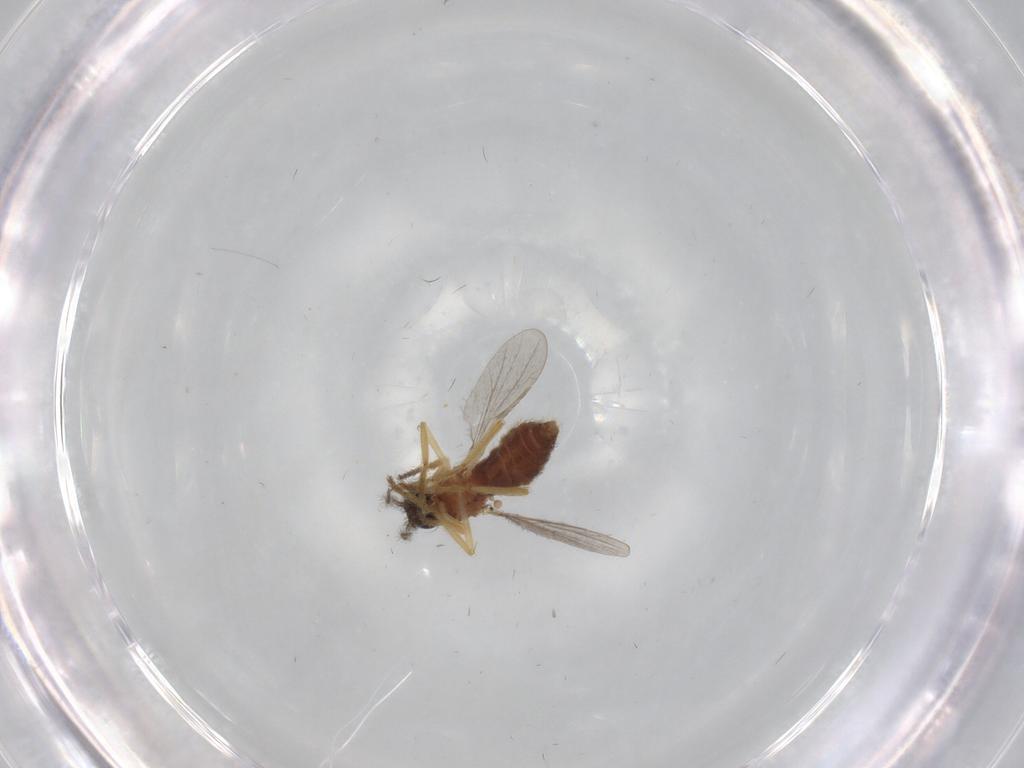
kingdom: Animalia
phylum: Arthropoda
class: Insecta
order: Diptera
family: Ceratopogonidae
